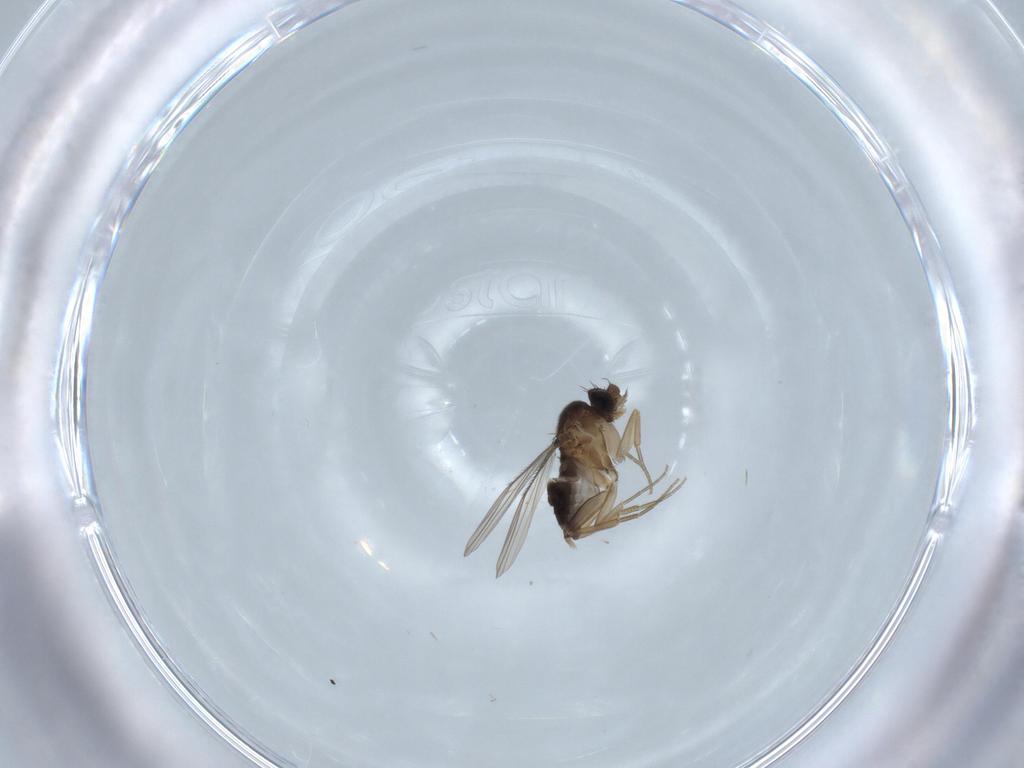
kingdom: Animalia
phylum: Arthropoda
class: Insecta
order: Diptera
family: Phoridae
